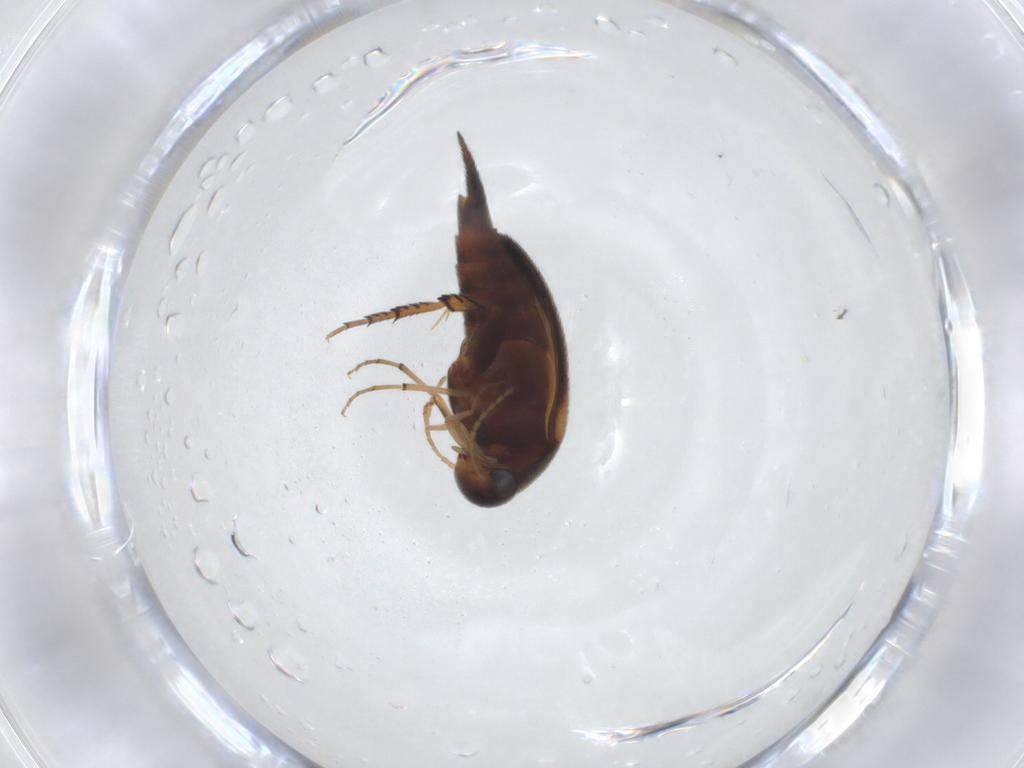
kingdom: Animalia
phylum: Arthropoda
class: Insecta
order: Coleoptera
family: Mordellidae
